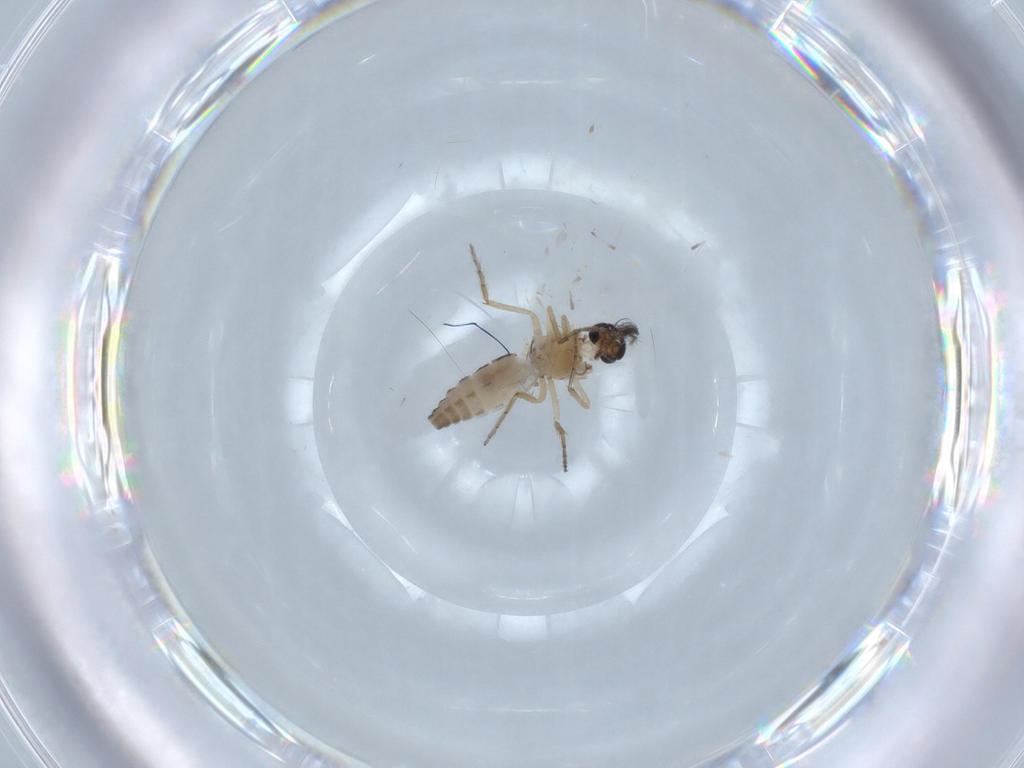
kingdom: Animalia
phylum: Arthropoda
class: Insecta
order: Diptera
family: Ceratopogonidae
